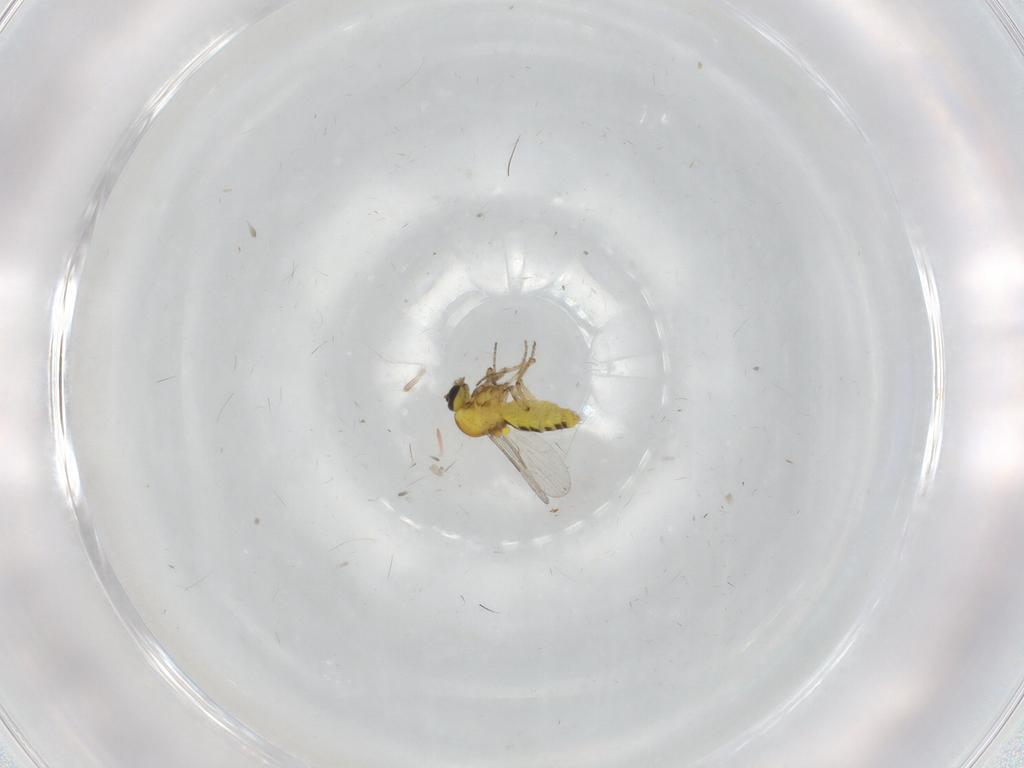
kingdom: Animalia
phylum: Arthropoda
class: Insecta
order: Diptera
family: Ceratopogonidae
